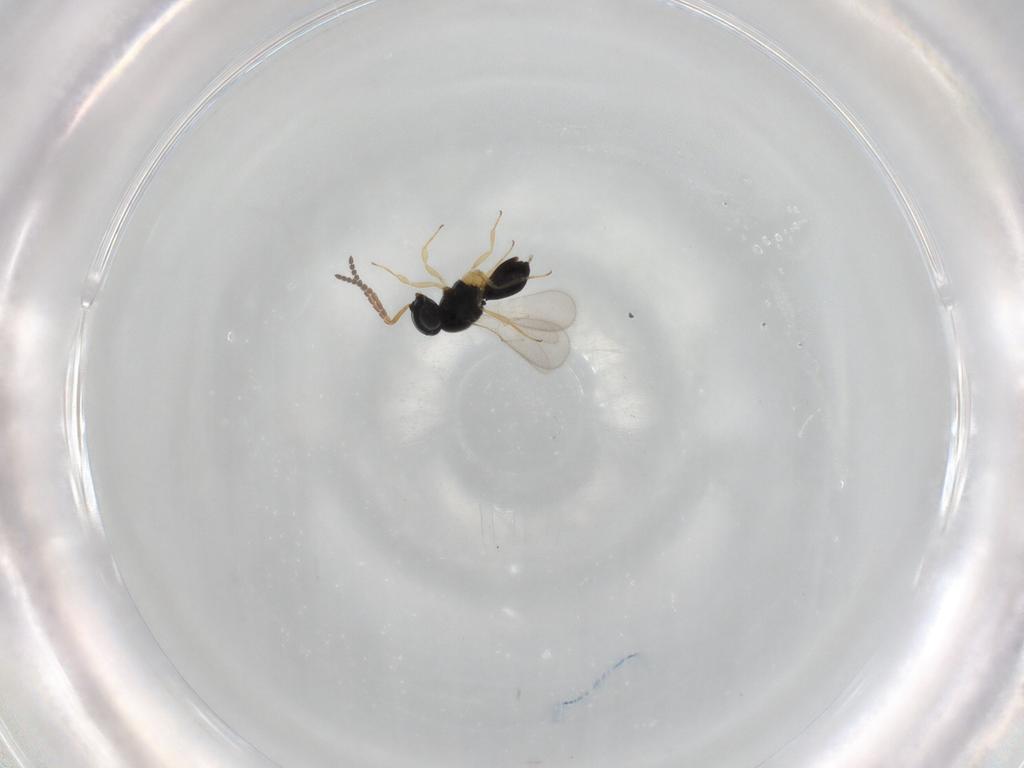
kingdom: Animalia
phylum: Arthropoda
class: Insecta
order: Hymenoptera
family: Scelionidae
